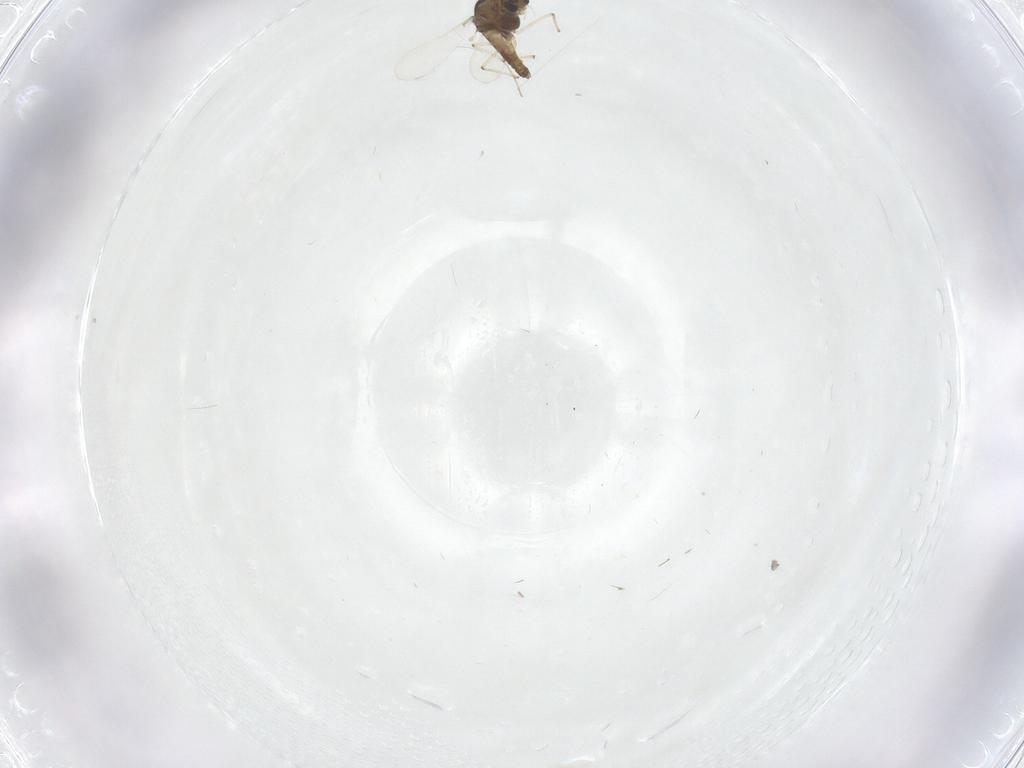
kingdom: Animalia
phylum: Arthropoda
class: Insecta
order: Diptera
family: Chironomidae
